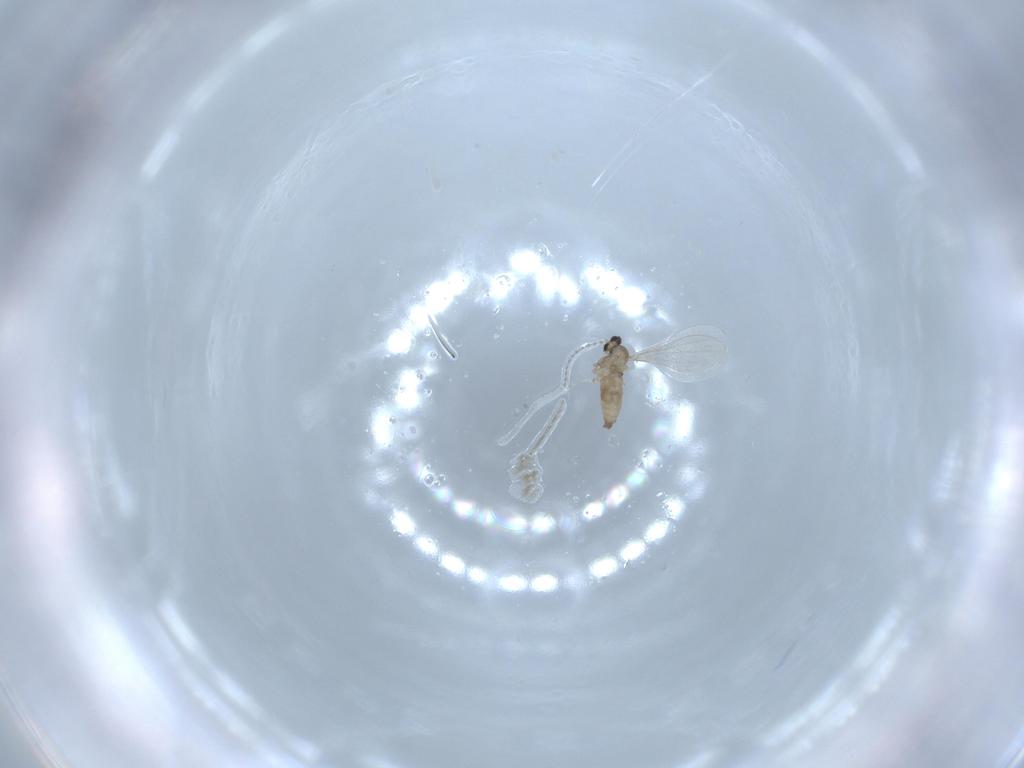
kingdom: Animalia
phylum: Arthropoda
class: Insecta
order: Diptera
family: Cecidomyiidae
